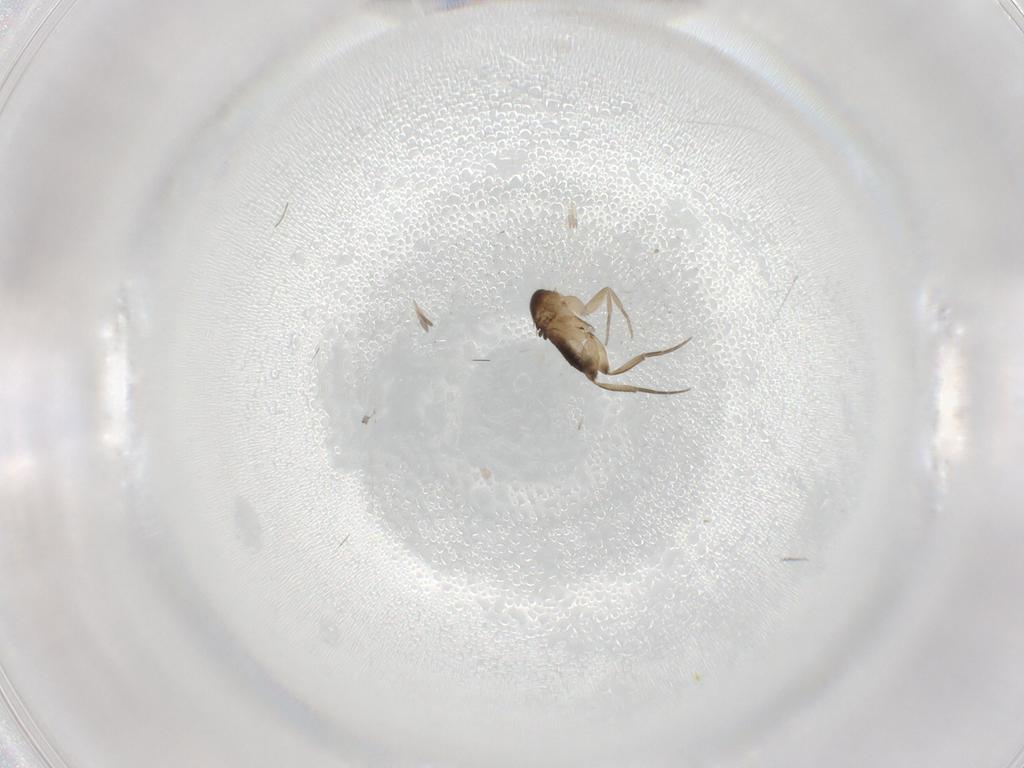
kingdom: Animalia
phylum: Arthropoda
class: Insecta
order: Diptera
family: Phoridae
